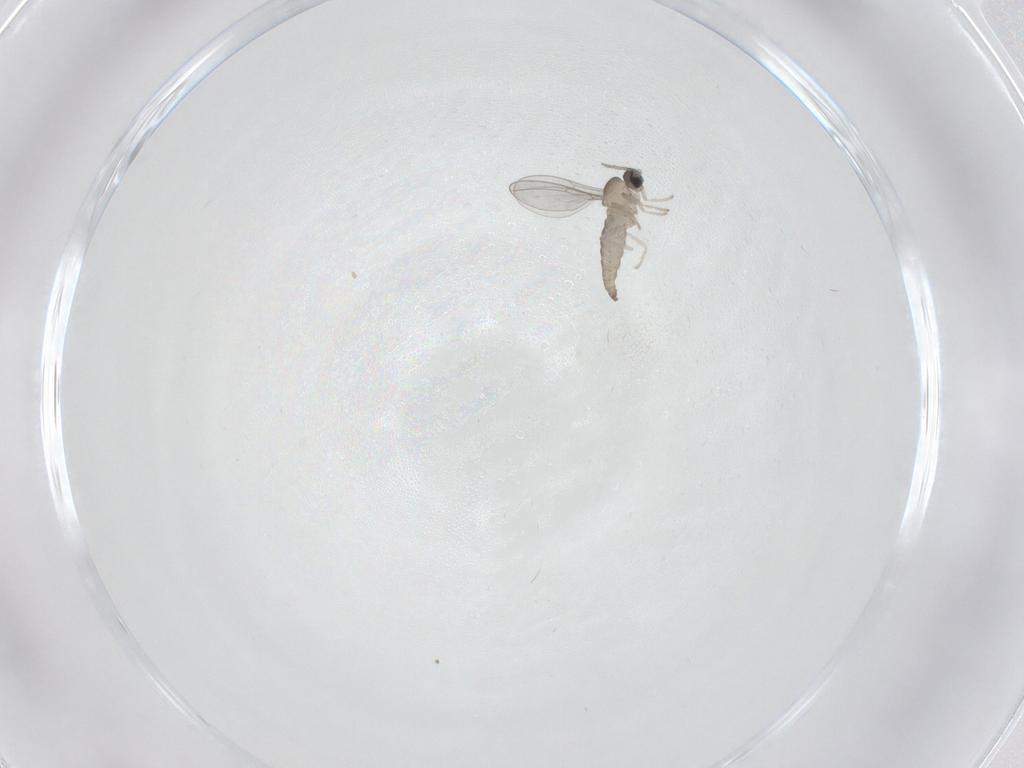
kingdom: Animalia
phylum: Arthropoda
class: Insecta
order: Diptera
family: Cecidomyiidae
